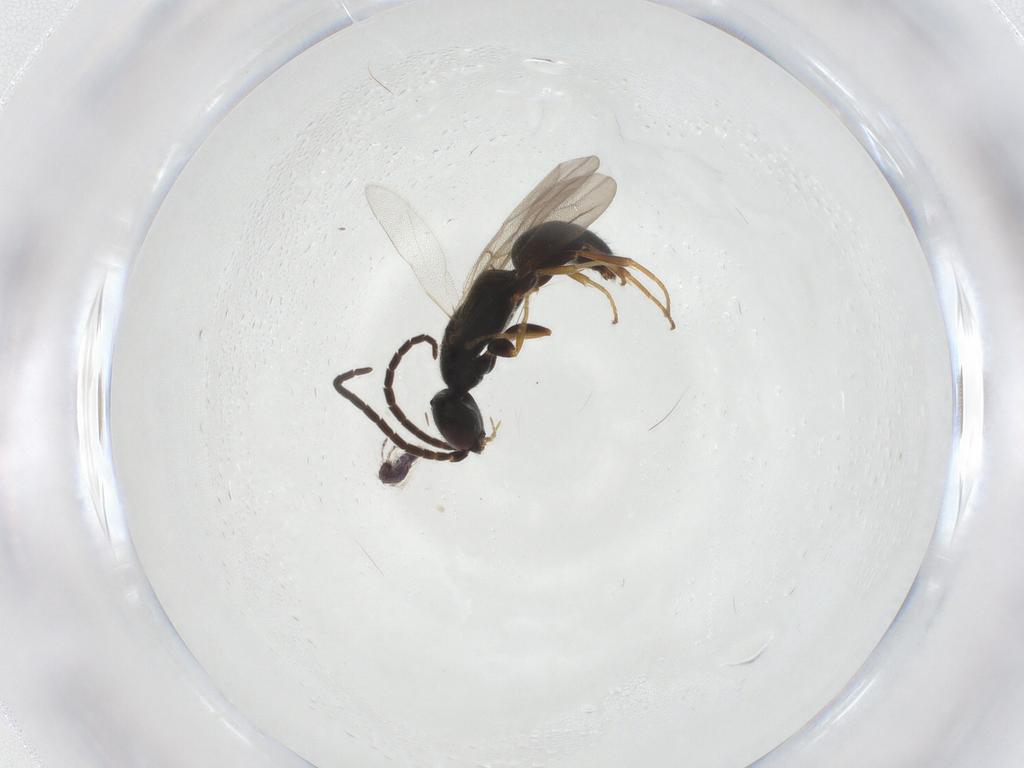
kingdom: Animalia
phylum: Arthropoda
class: Insecta
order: Hymenoptera
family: Bethylidae
